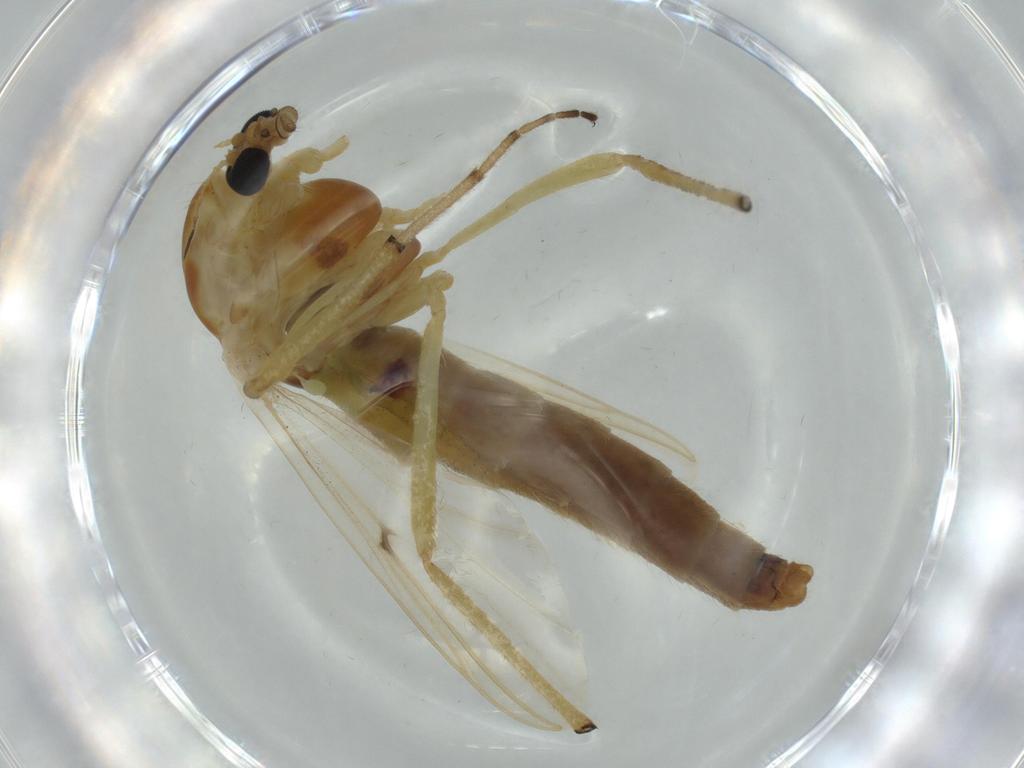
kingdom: Animalia
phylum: Arthropoda
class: Insecta
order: Diptera
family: Chironomidae
